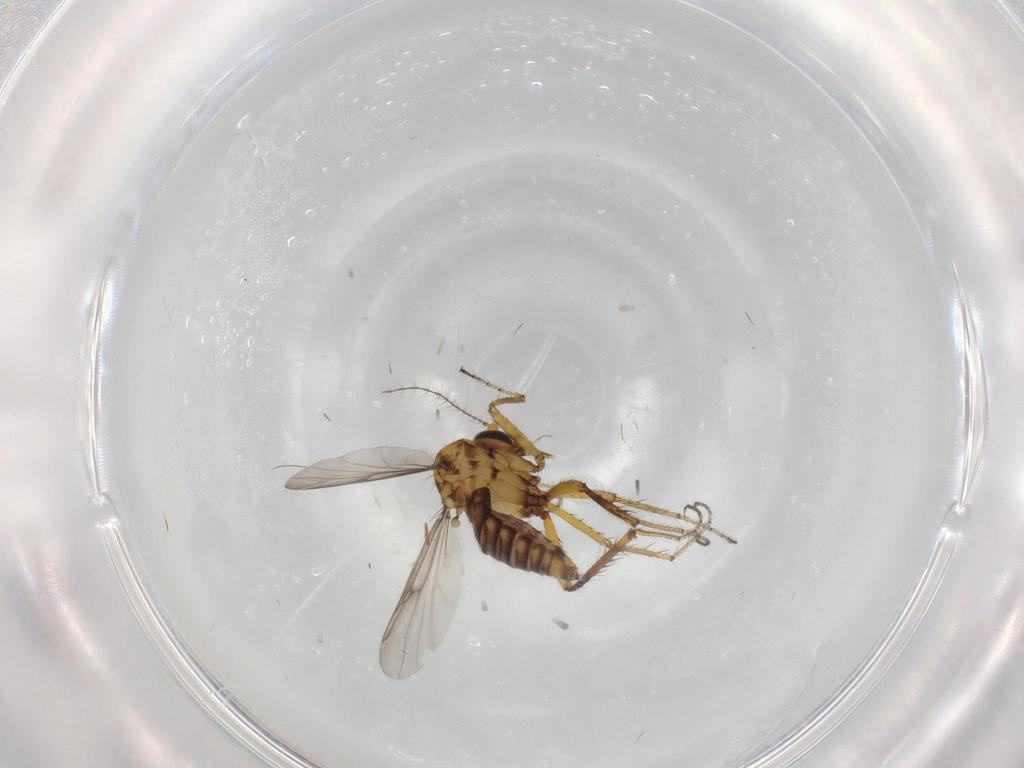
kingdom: Animalia
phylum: Arthropoda
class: Insecta
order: Diptera
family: Ceratopogonidae
